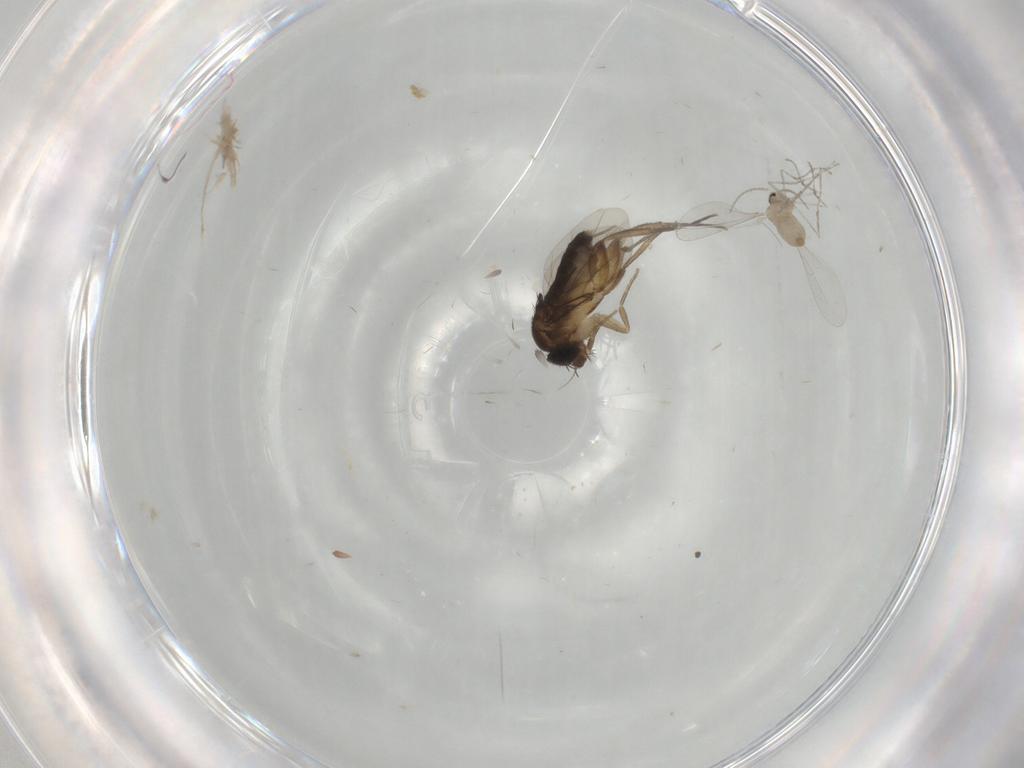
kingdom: Animalia
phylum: Arthropoda
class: Insecta
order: Diptera
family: Phoridae
